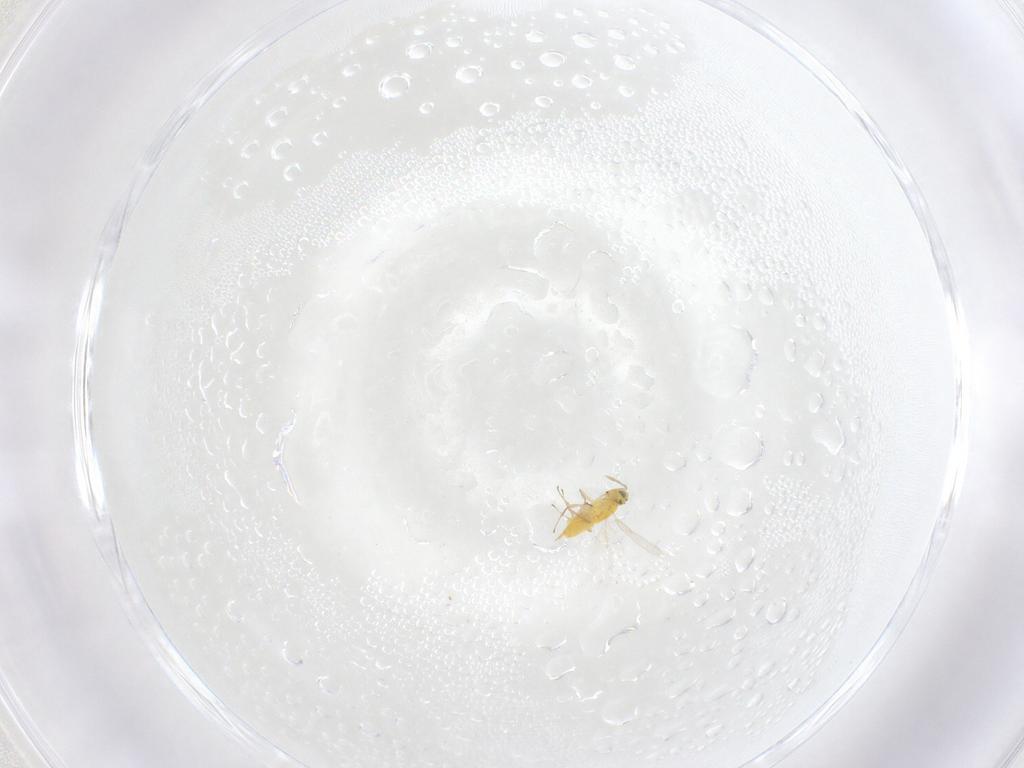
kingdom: Animalia
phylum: Arthropoda
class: Insecta
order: Hymenoptera
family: Aphelinidae
